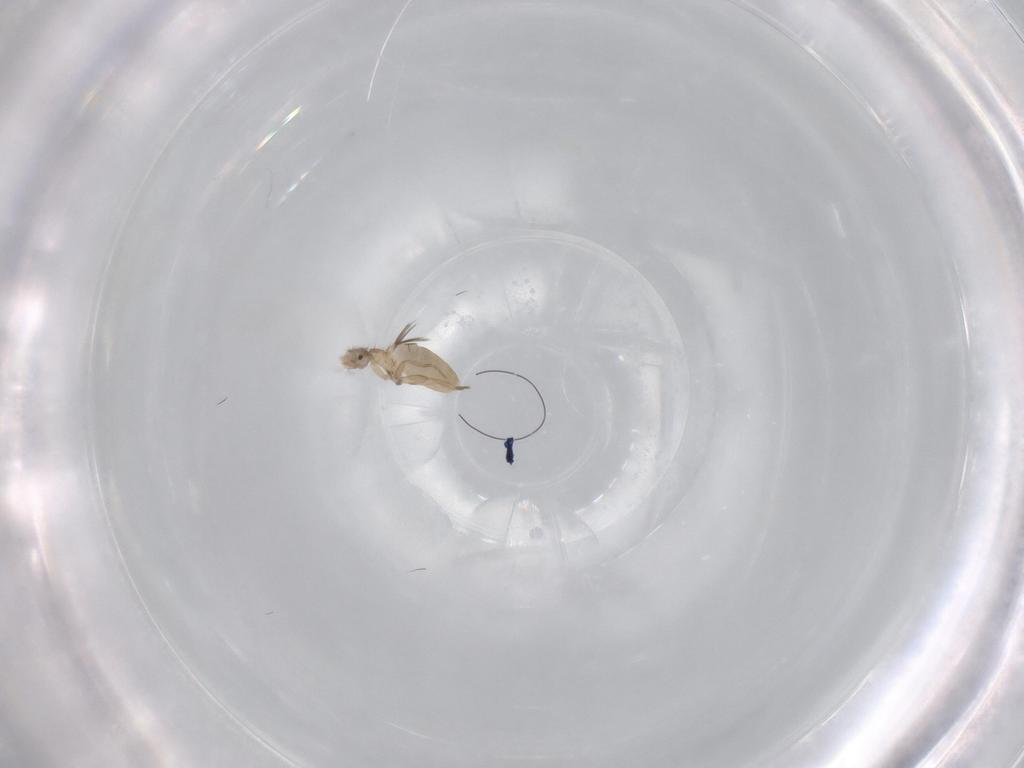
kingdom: Animalia
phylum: Arthropoda
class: Insecta
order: Diptera
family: Phoridae
